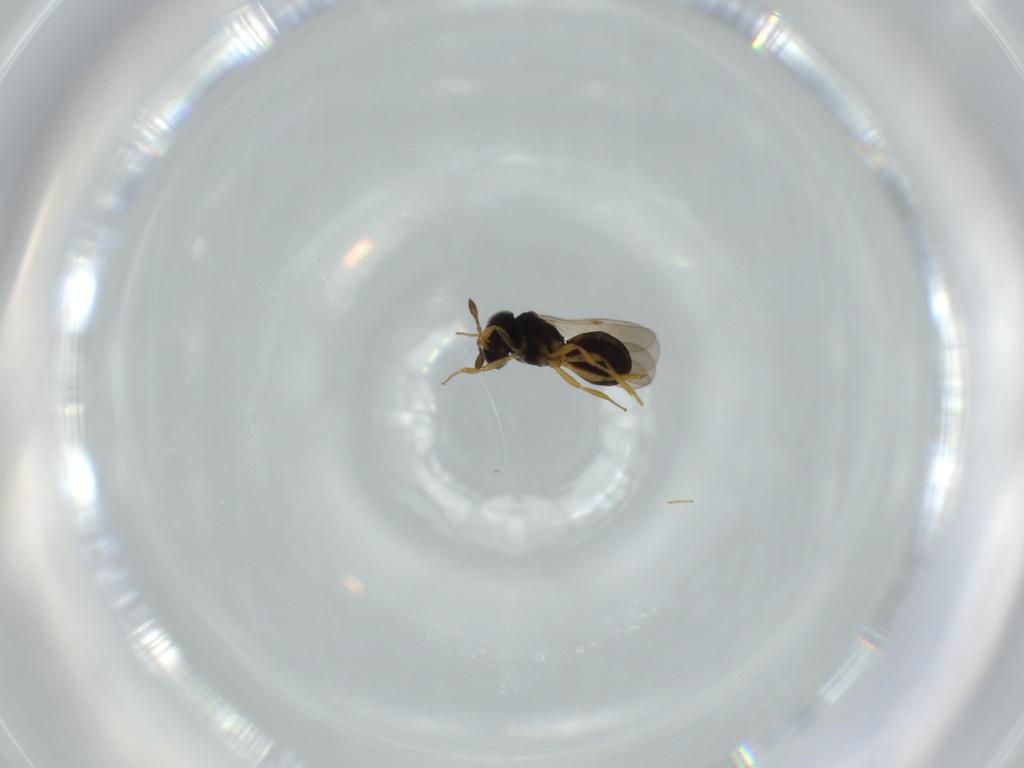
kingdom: Animalia
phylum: Arthropoda
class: Insecta
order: Hymenoptera
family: Scelionidae
